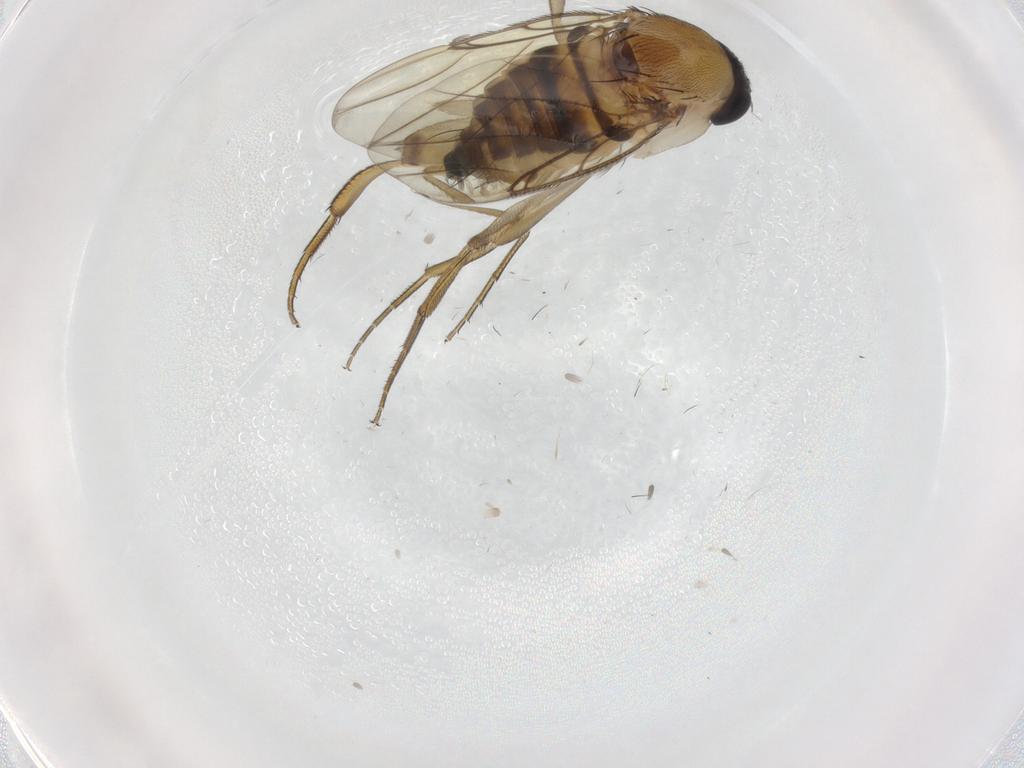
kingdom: Animalia
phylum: Arthropoda
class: Insecta
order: Diptera
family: Phoridae
